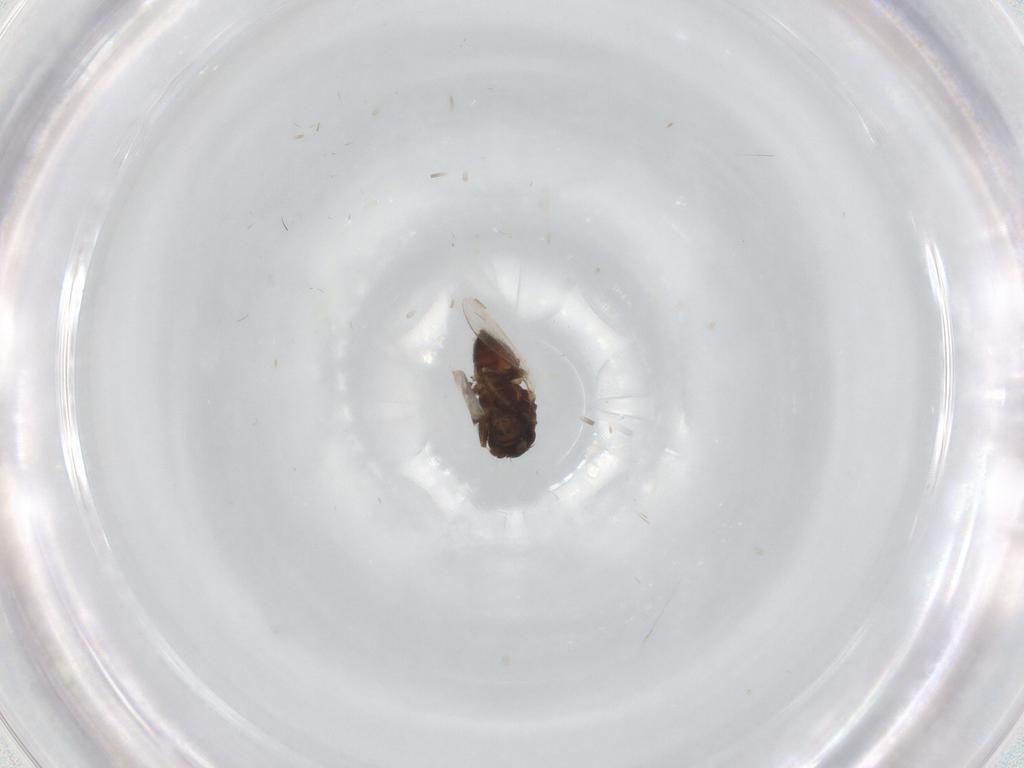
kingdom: Animalia
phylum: Arthropoda
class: Insecta
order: Diptera
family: Sphaeroceridae
